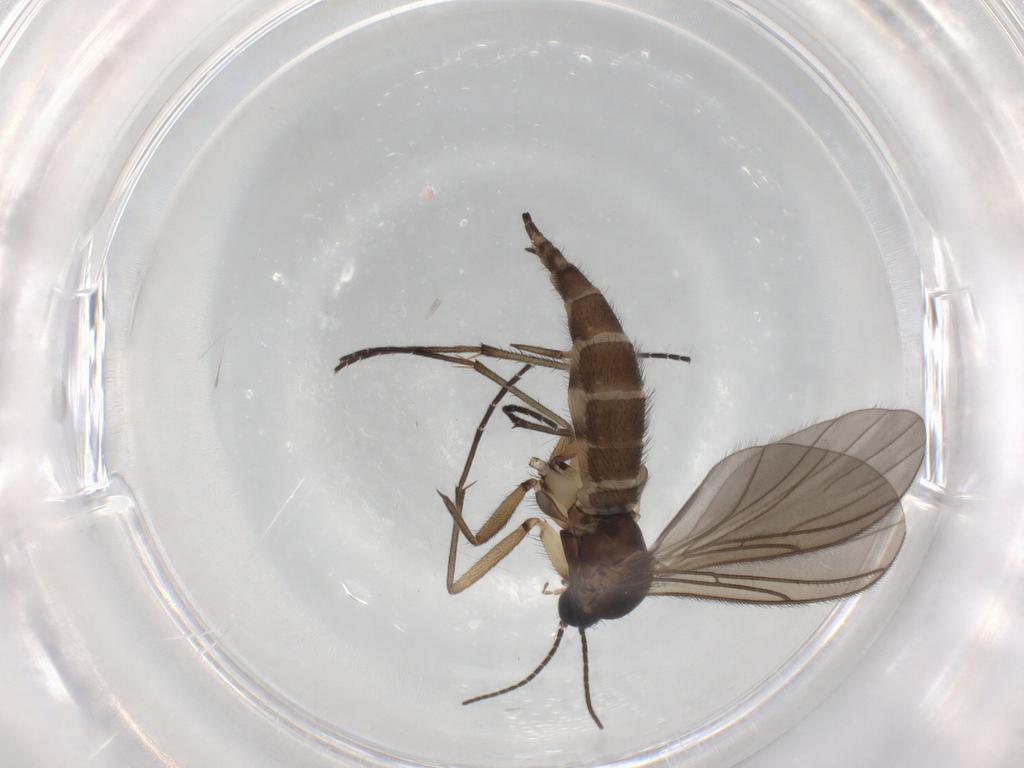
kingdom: Animalia
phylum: Arthropoda
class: Insecta
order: Diptera
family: Sciaridae
